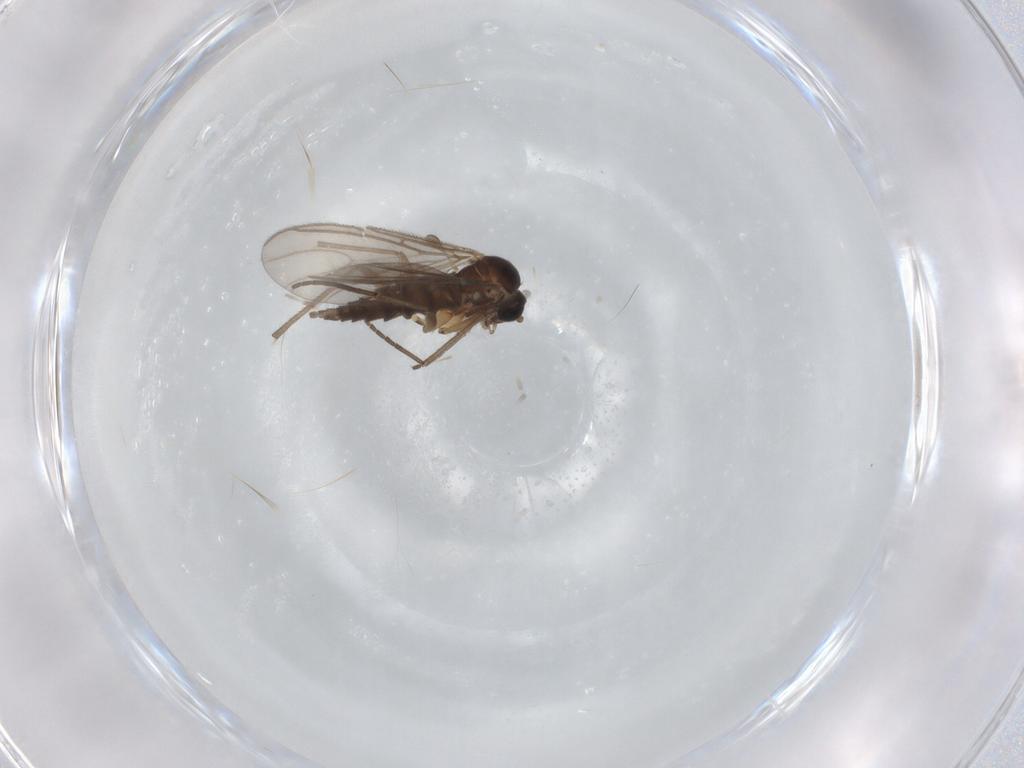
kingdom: Animalia
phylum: Arthropoda
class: Insecta
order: Diptera
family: Sciaridae
